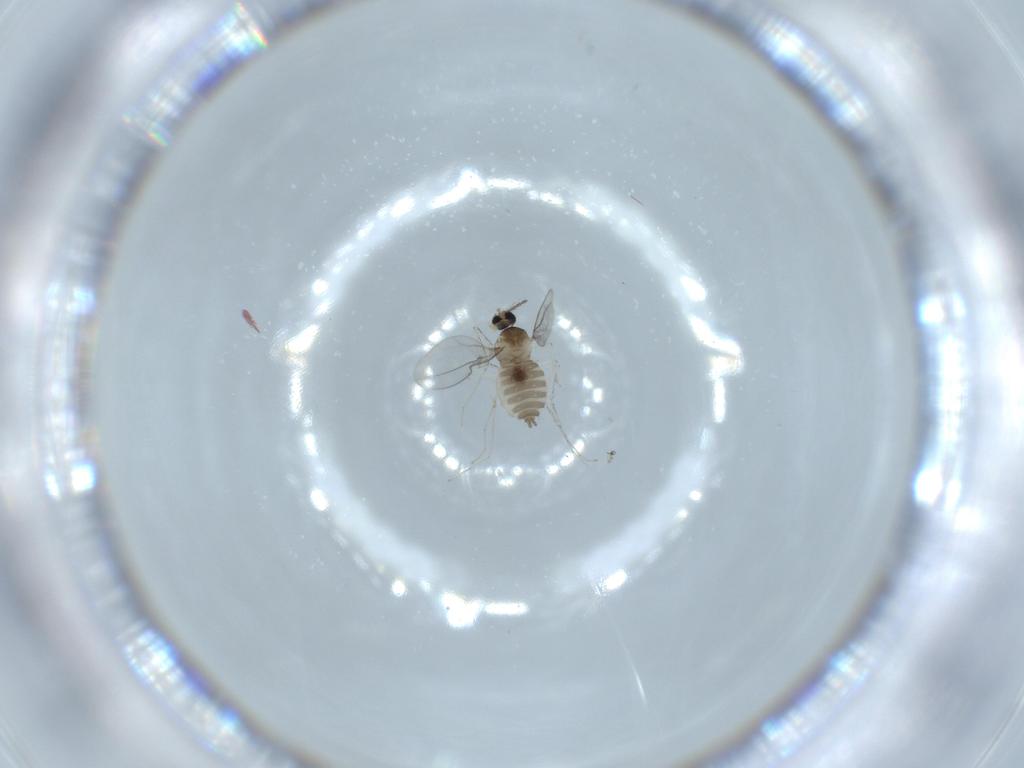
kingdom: Animalia
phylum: Arthropoda
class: Insecta
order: Diptera
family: Cecidomyiidae
